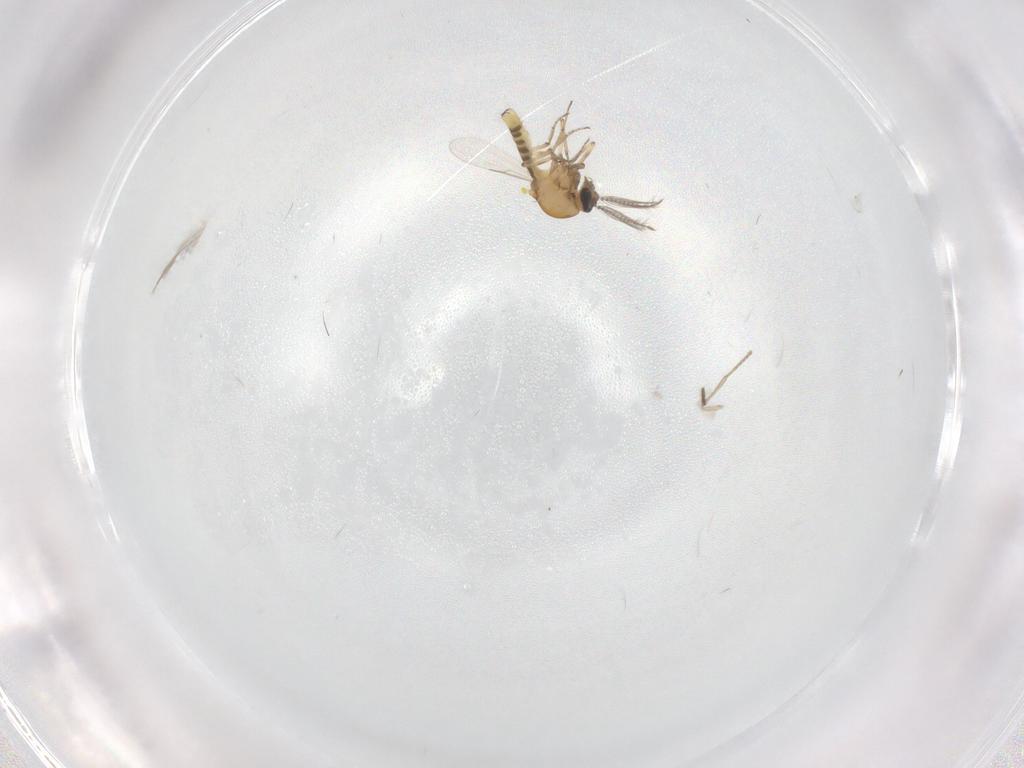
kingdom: Animalia
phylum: Arthropoda
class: Insecta
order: Diptera
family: Psychodidae
